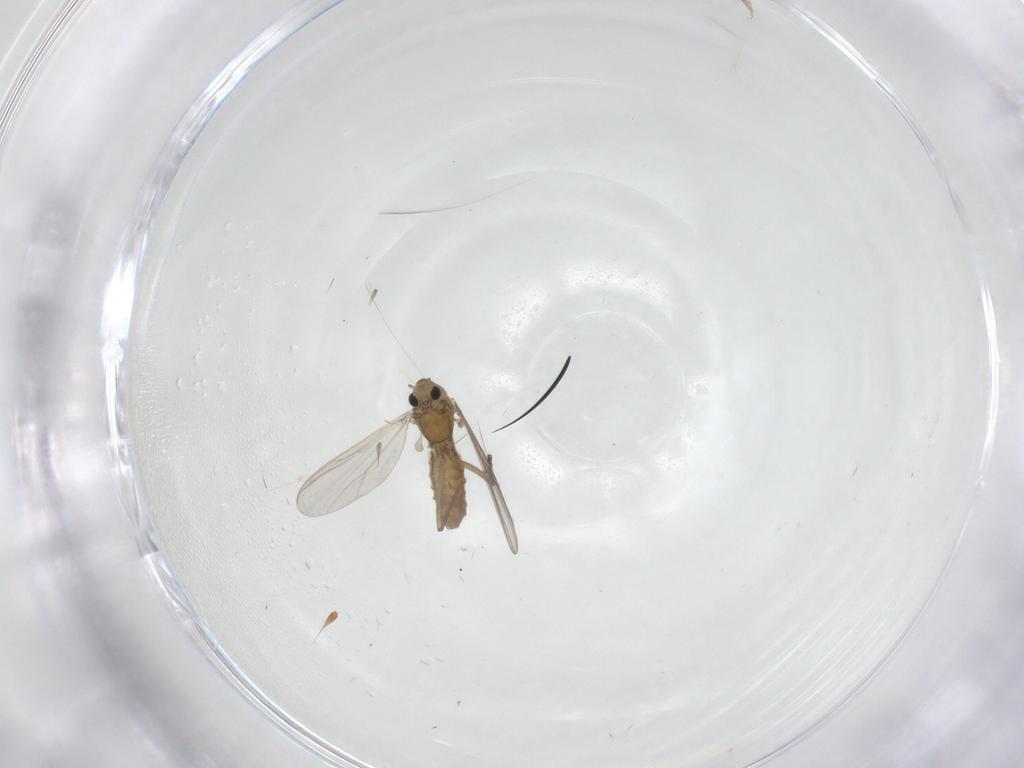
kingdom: Animalia
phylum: Arthropoda
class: Insecta
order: Diptera
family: Chironomidae
